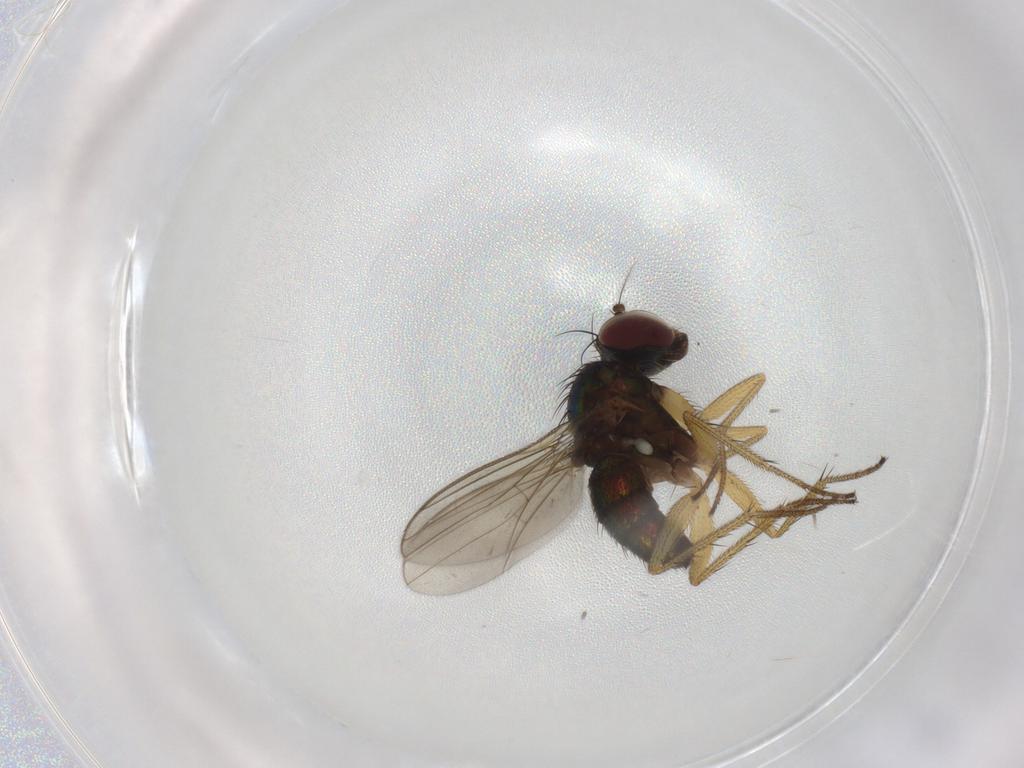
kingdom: Animalia
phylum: Arthropoda
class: Insecta
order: Diptera
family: Dolichopodidae
